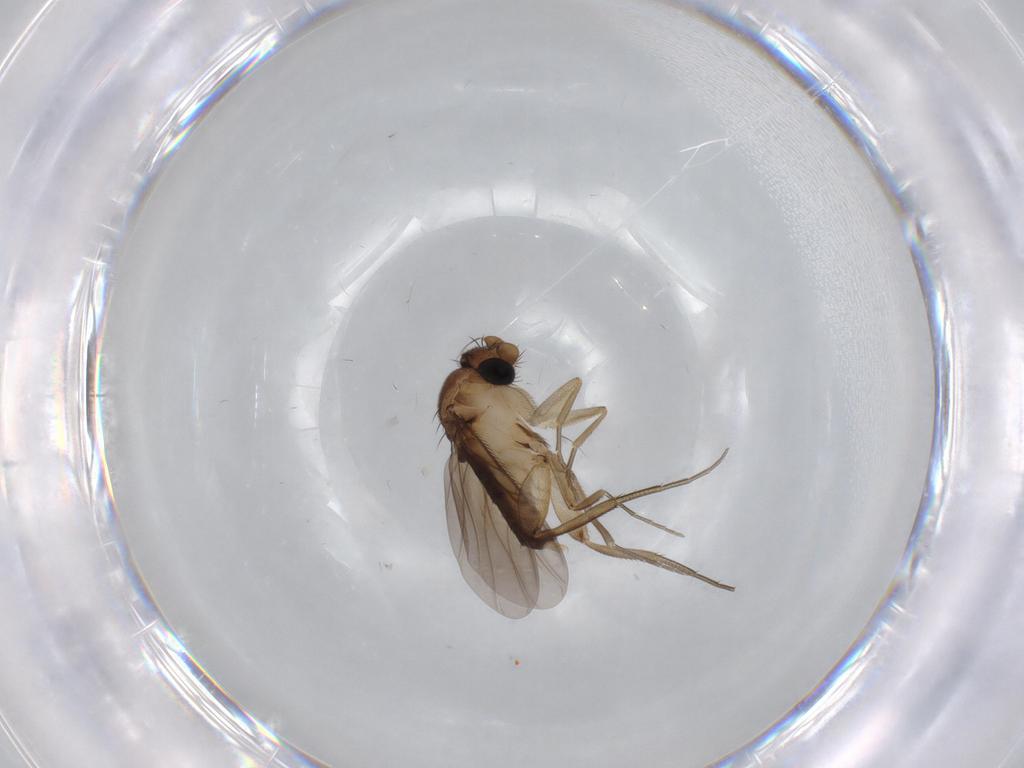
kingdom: Animalia
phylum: Arthropoda
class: Insecta
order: Diptera
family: Phoridae
